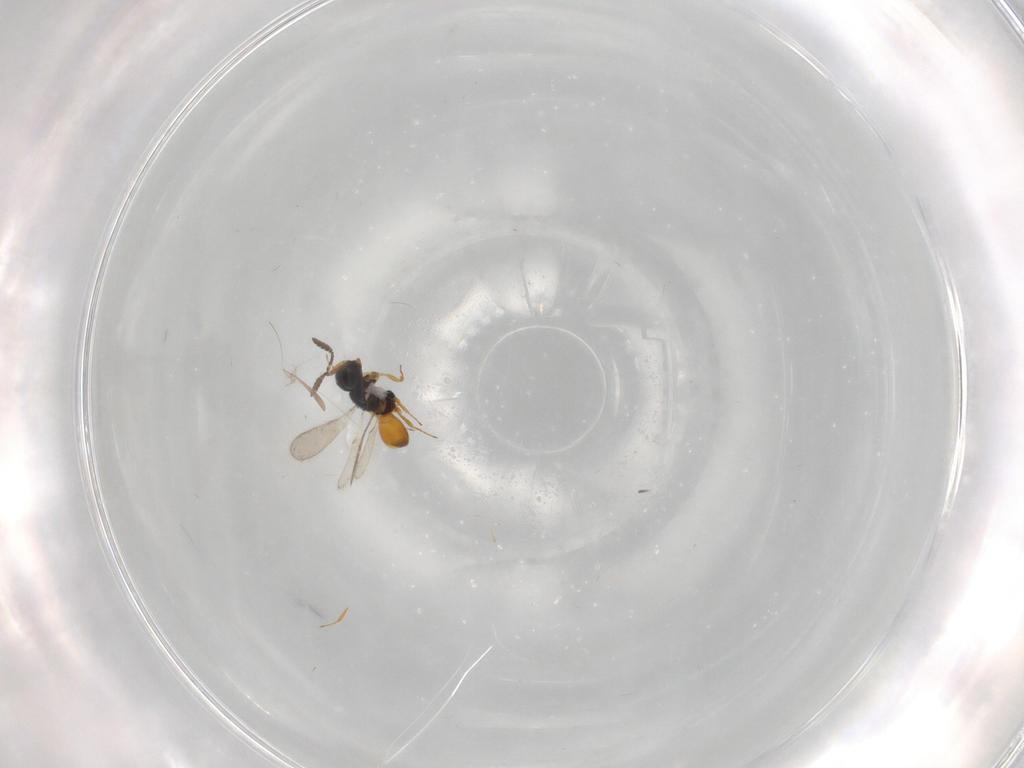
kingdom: Animalia
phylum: Arthropoda
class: Insecta
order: Hymenoptera
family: Scelionidae
